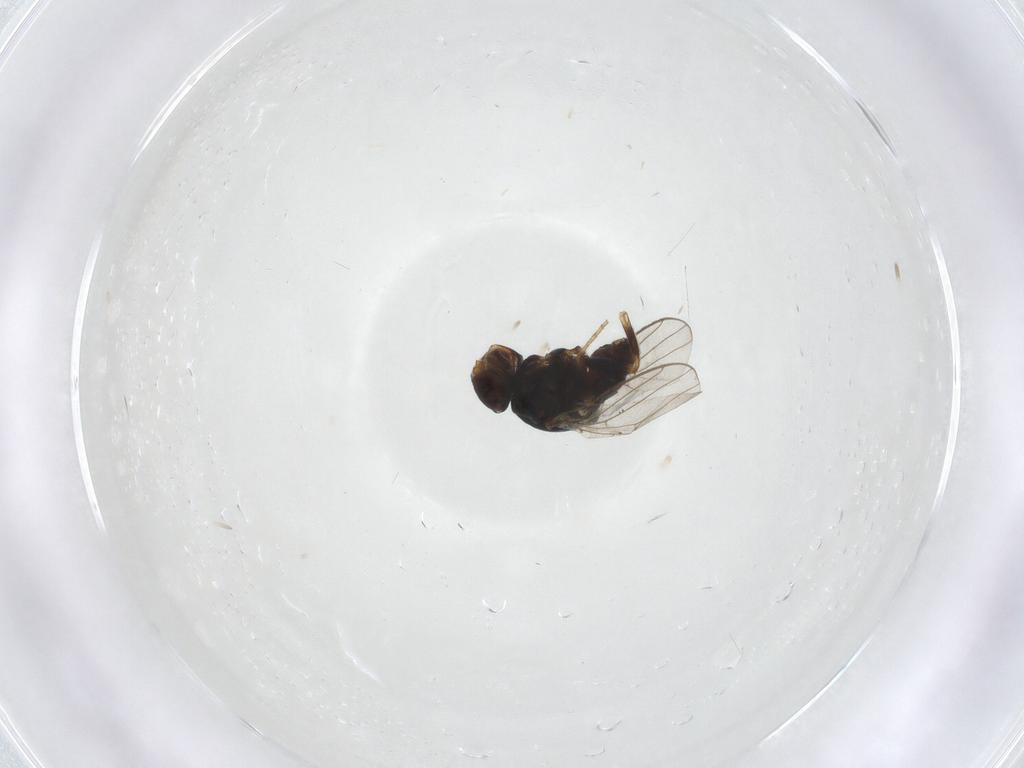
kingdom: Animalia
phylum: Arthropoda
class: Insecta
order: Diptera
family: Chloropidae
